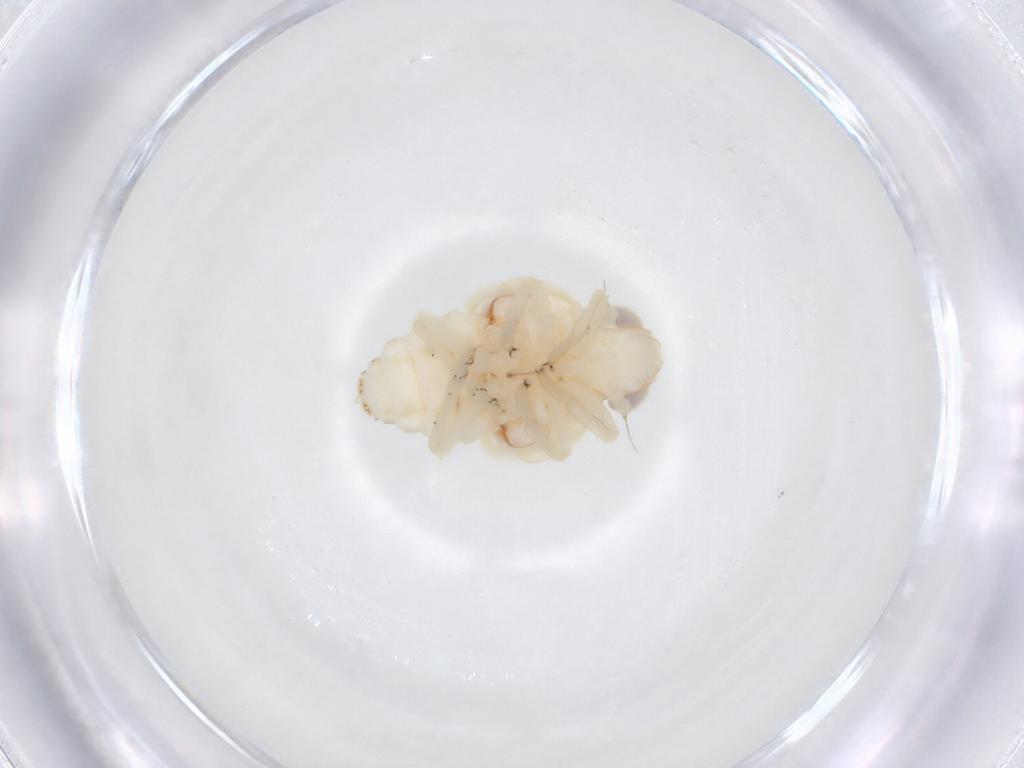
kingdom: Animalia
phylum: Arthropoda
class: Insecta
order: Hemiptera
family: Nogodinidae
